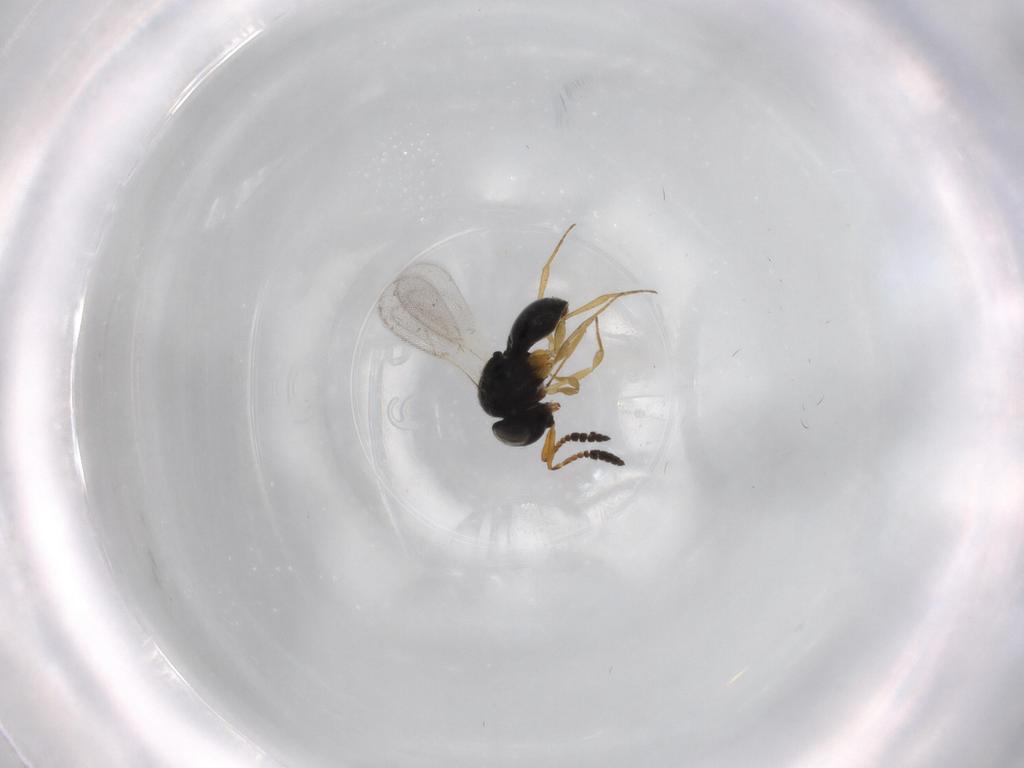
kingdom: Animalia
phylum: Arthropoda
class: Insecta
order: Hymenoptera
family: Scelionidae
